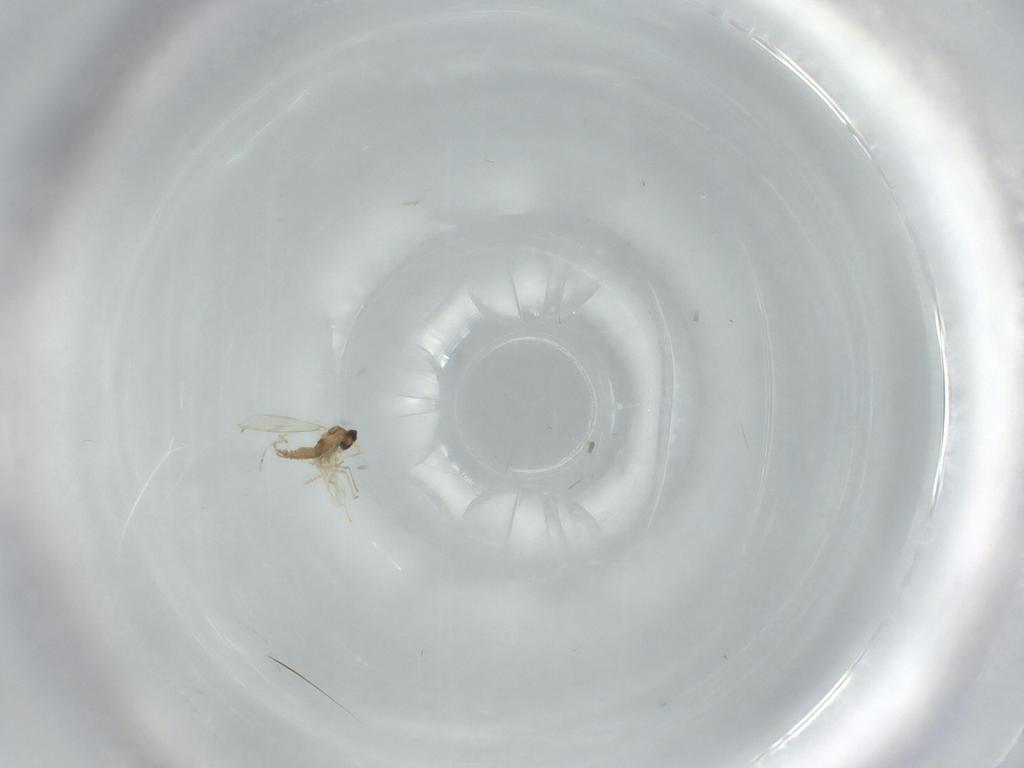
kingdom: Animalia
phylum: Arthropoda
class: Insecta
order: Diptera
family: Cecidomyiidae
